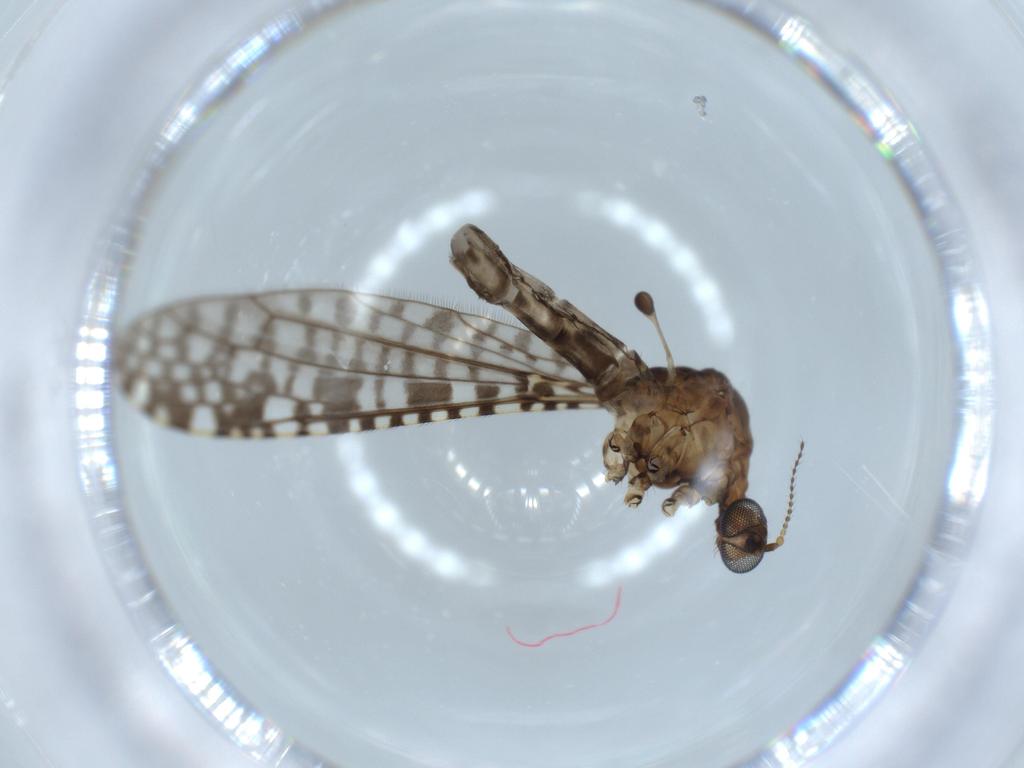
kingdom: Animalia
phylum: Arthropoda
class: Insecta
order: Diptera
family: Limoniidae
